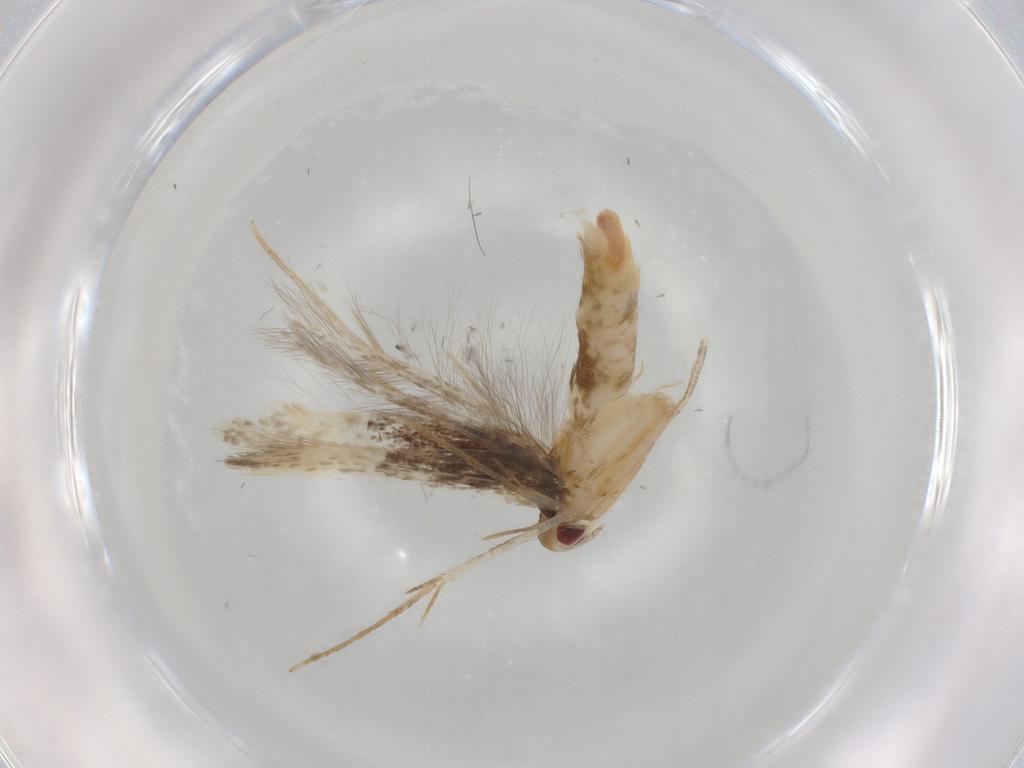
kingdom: Animalia
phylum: Arthropoda
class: Insecta
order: Lepidoptera
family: Cosmopterigidae
